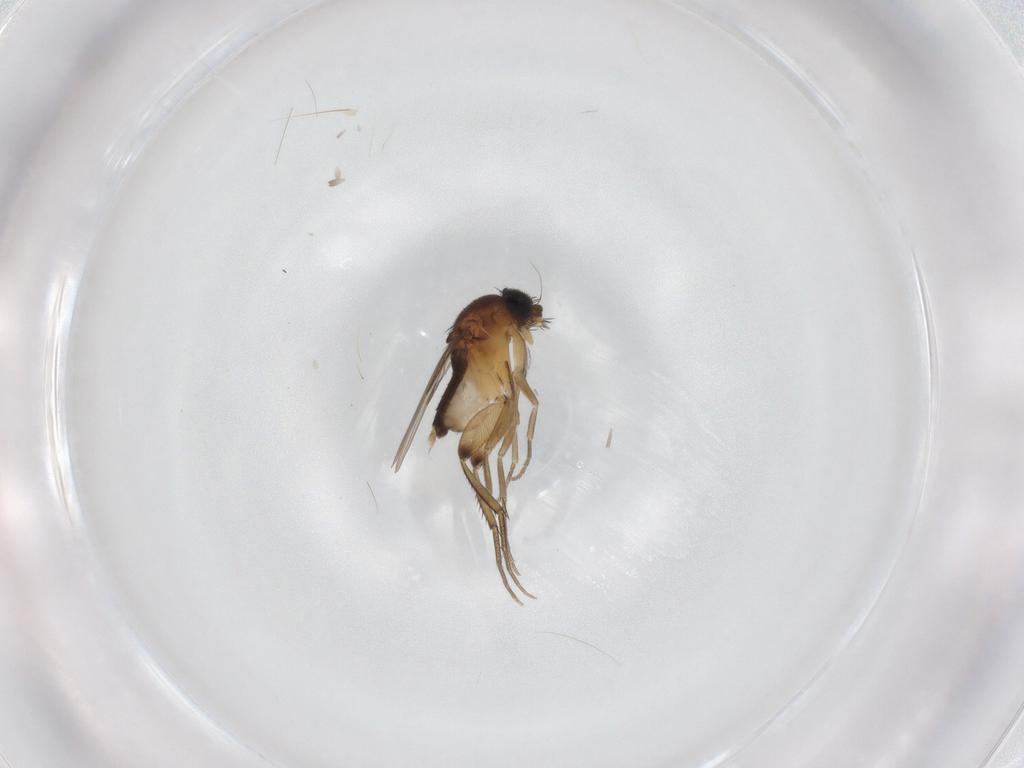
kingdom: Animalia
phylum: Arthropoda
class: Insecta
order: Diptera
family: Phoridae
